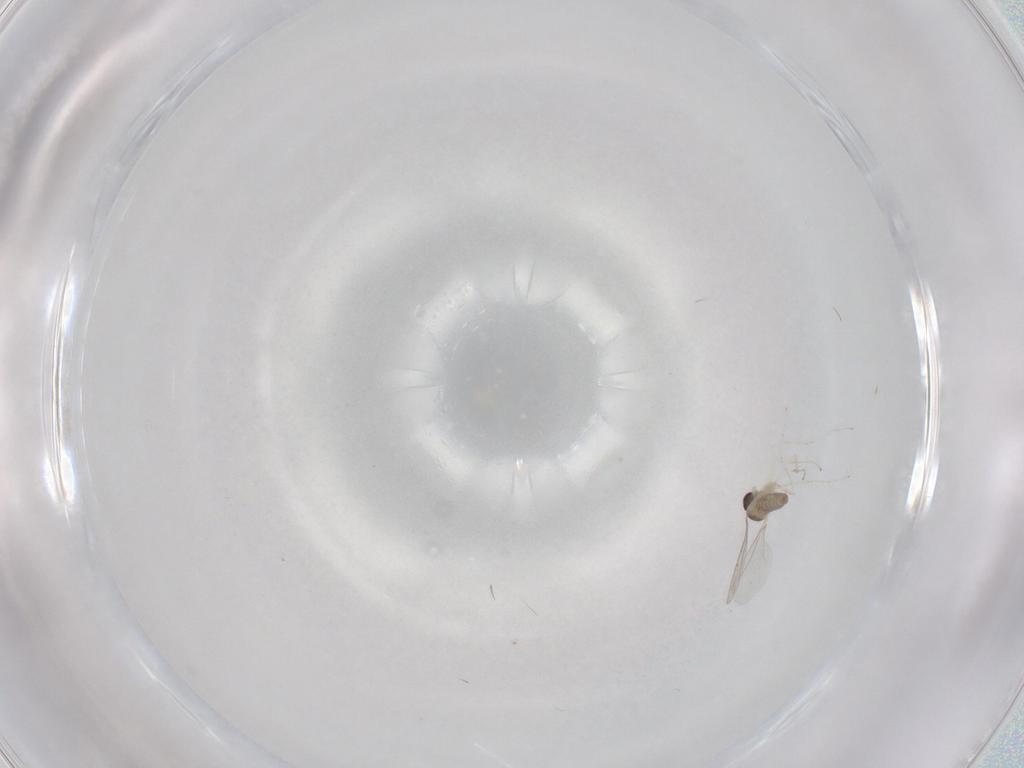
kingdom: Animalia
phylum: Arthropoda
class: Insecta
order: Diptera
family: Cecidomyiidae
